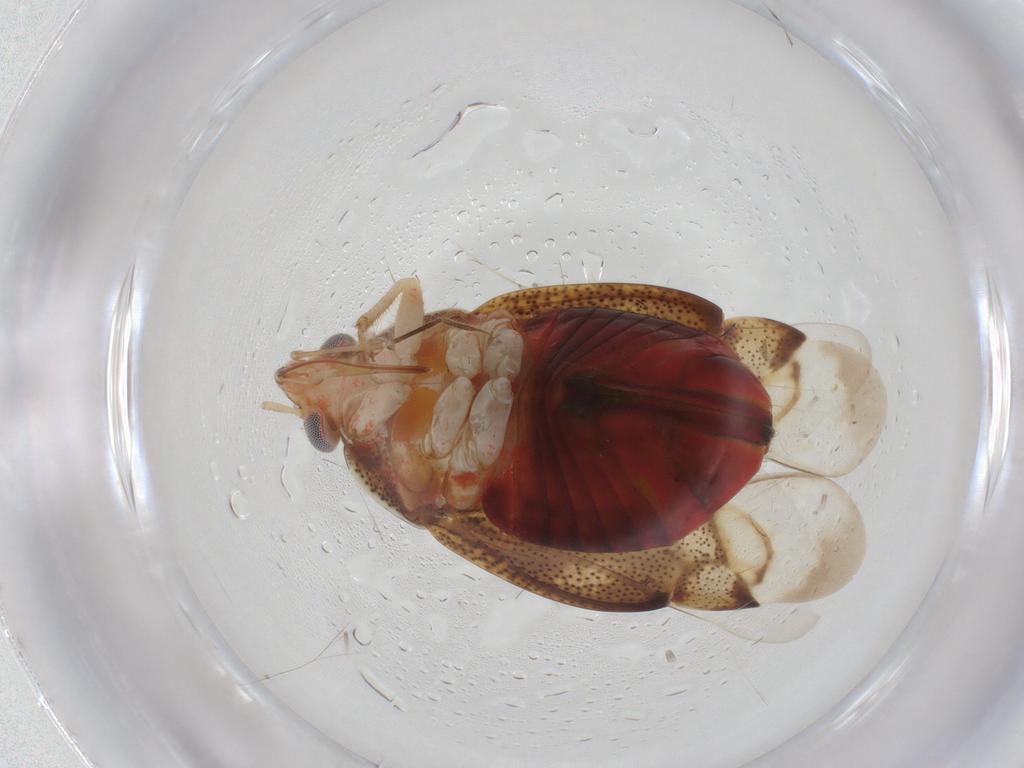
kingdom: Animalia
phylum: Arthropoda
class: Insecta
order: Hemiptera
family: Miridae
